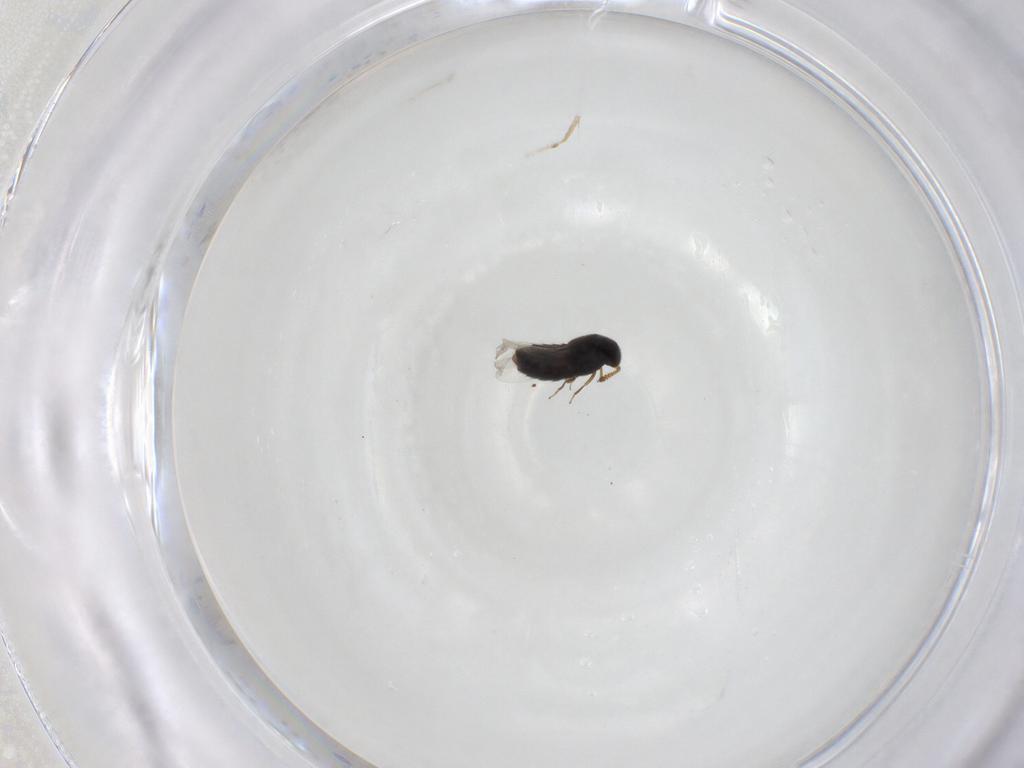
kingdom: Animalia
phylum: Arthropoda
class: Insecta
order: Coleoptera
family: Staphylinidae
